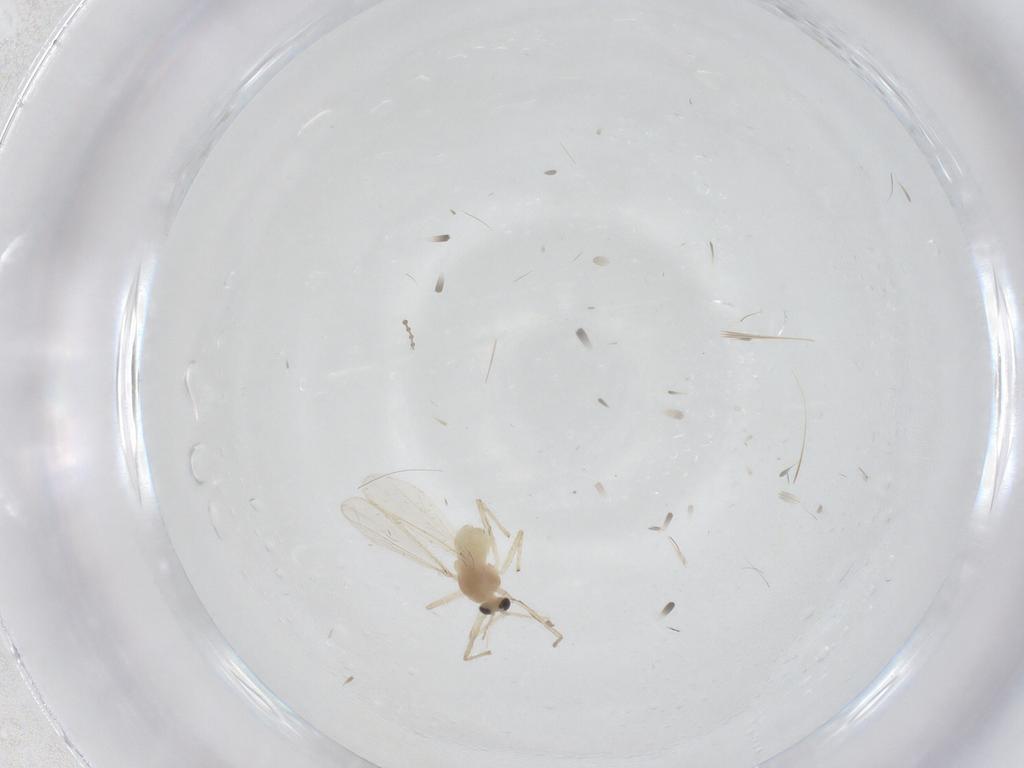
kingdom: Animalia
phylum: Arthropoda
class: Insecta
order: Diptera
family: Chironomidae
